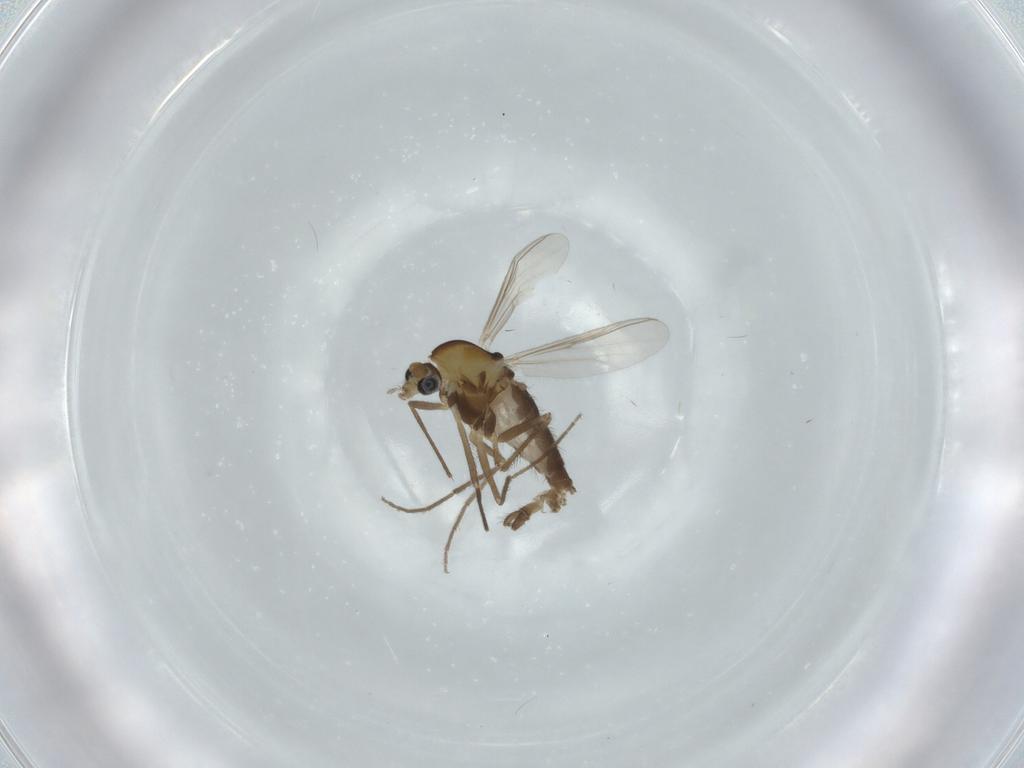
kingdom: Animalia
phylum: Arthropoda
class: Insecta
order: Diptera
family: Chironomidae
